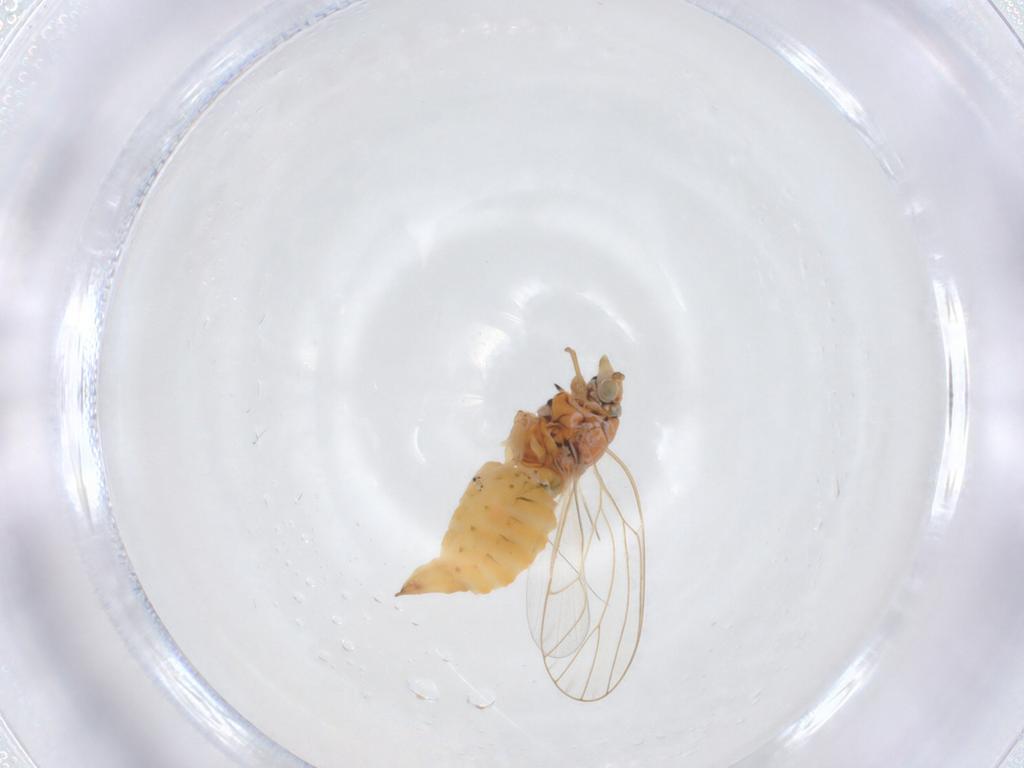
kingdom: Animalia
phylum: Arthropoda
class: Insecta
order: Hemiptera
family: Aphididae
